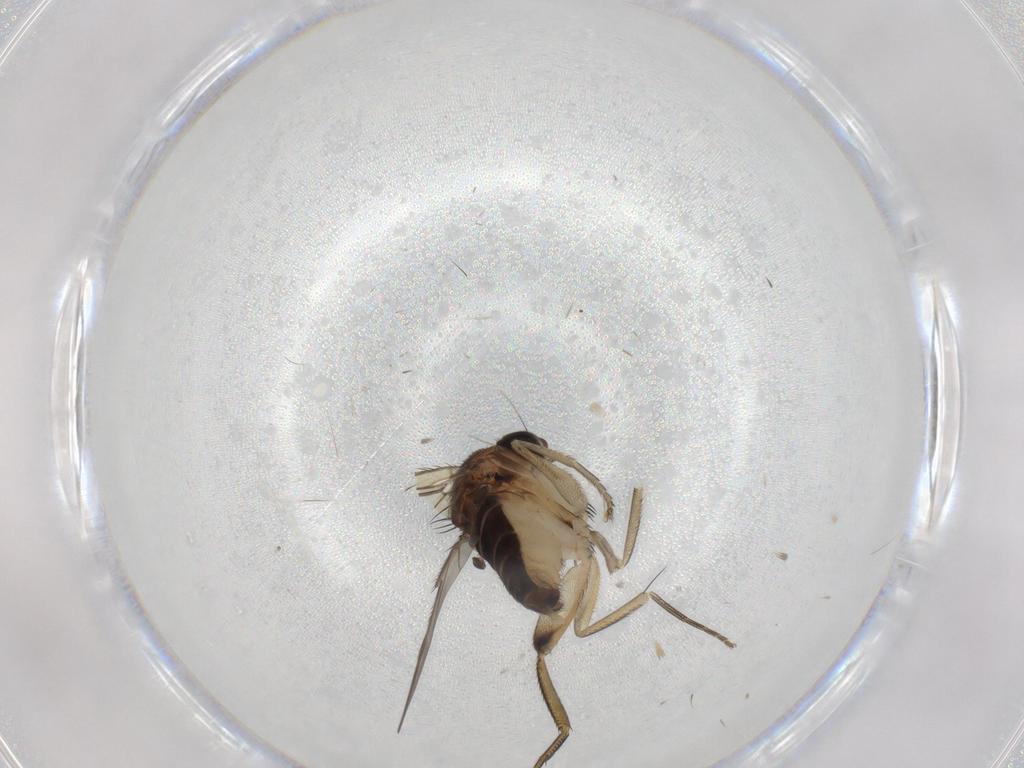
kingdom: Animalia
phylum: Arthropoda
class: Insecta
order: Diptera
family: Phoridae
